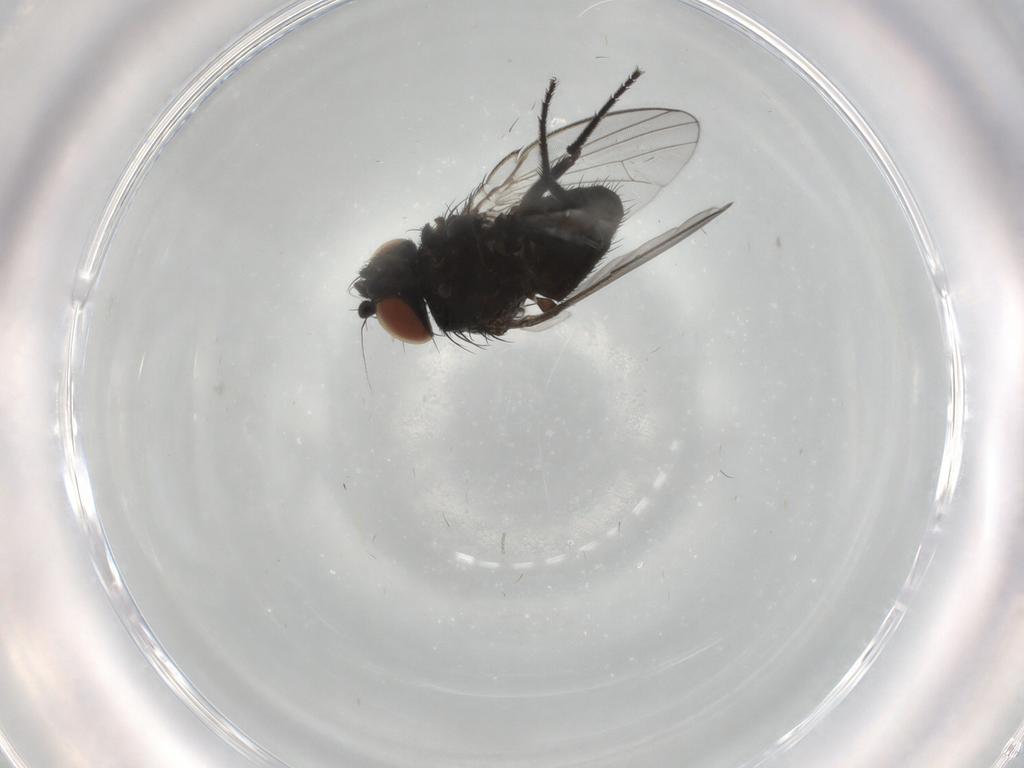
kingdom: Animalia
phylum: Arthropoda
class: Insecta
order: Diptera
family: Milichiidae
